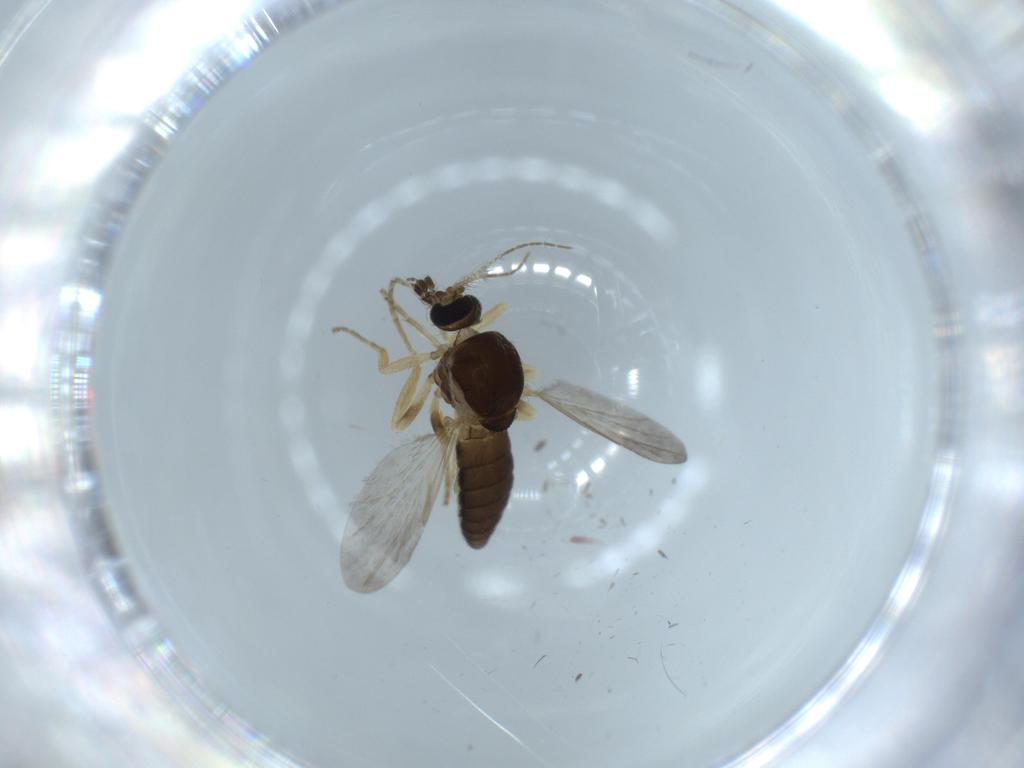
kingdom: Animalia
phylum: Arthropoda
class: Insecta
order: Diptera
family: Ceratopogonidae
